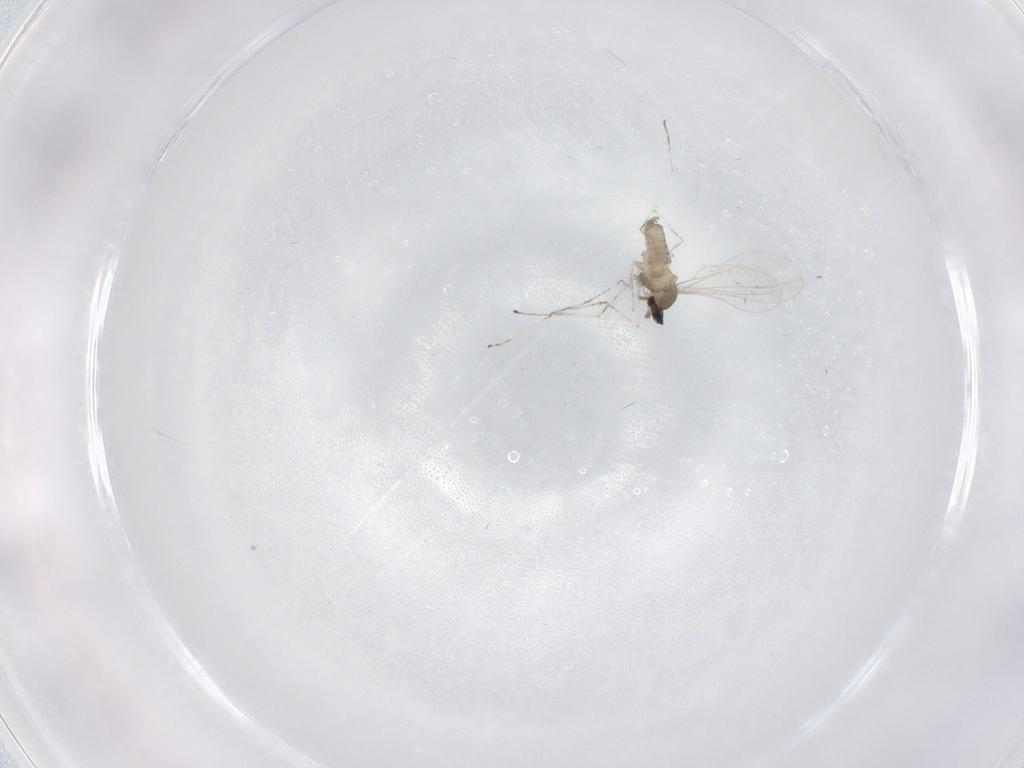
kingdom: Animalia
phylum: Arthropoda
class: Insecta
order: Diptera
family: Cecidomyiidae
